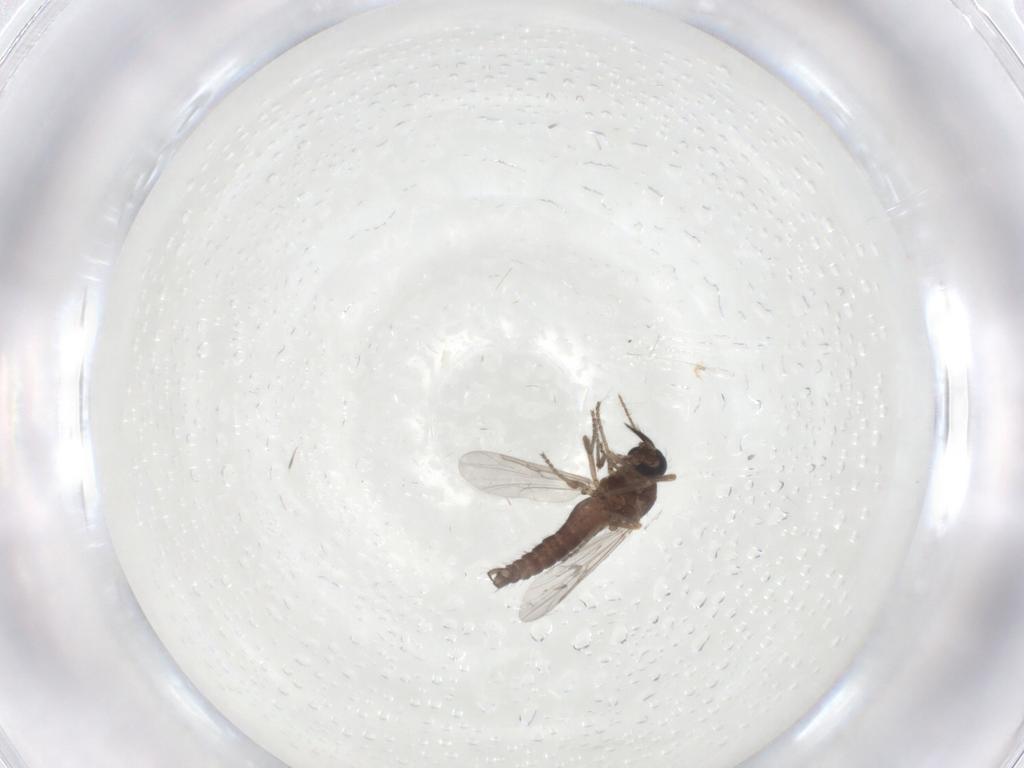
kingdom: Animalia
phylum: Arthropoda
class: Insecta
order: Diptera
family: Ceratopogonidae
